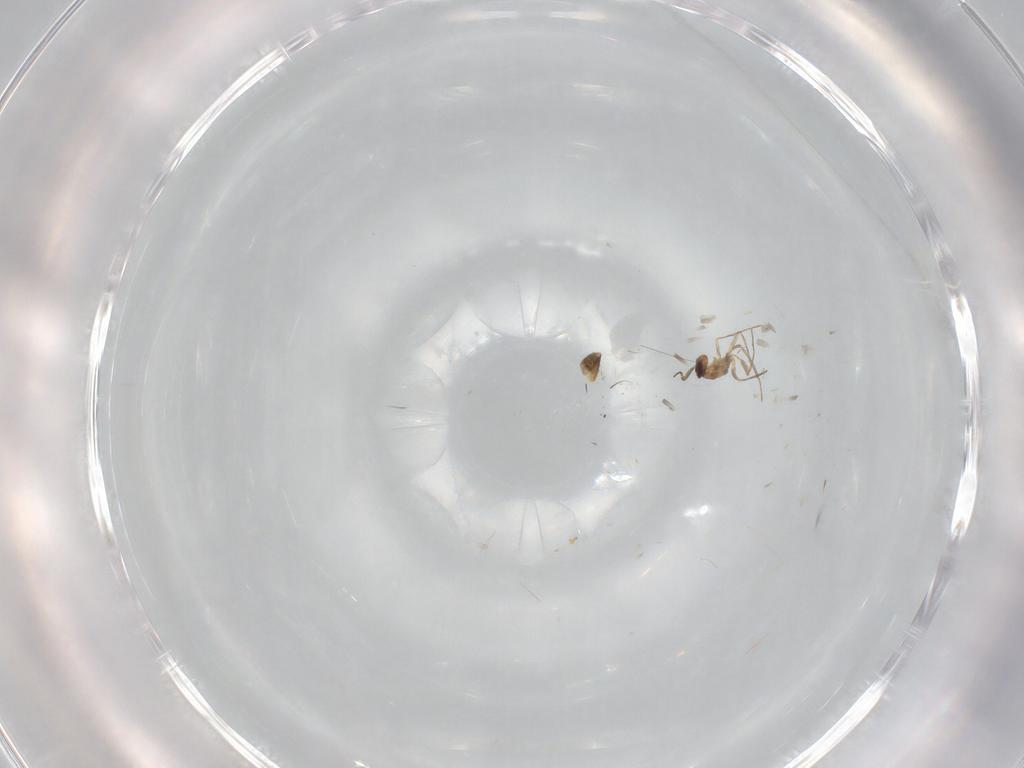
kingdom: Animalia
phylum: Arthropoda
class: Insecta
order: Hymenoptera
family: Mymaridae
